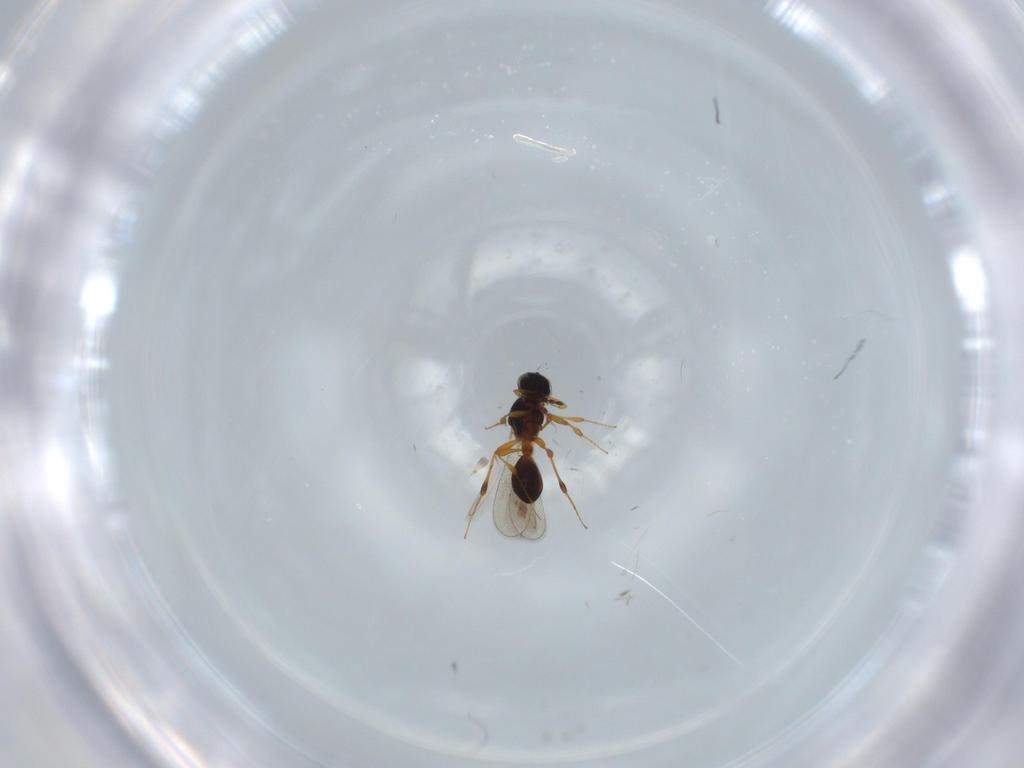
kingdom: Animalia
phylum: Arthropoda
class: Insecta
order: Hymenoptera
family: Platygastridae
